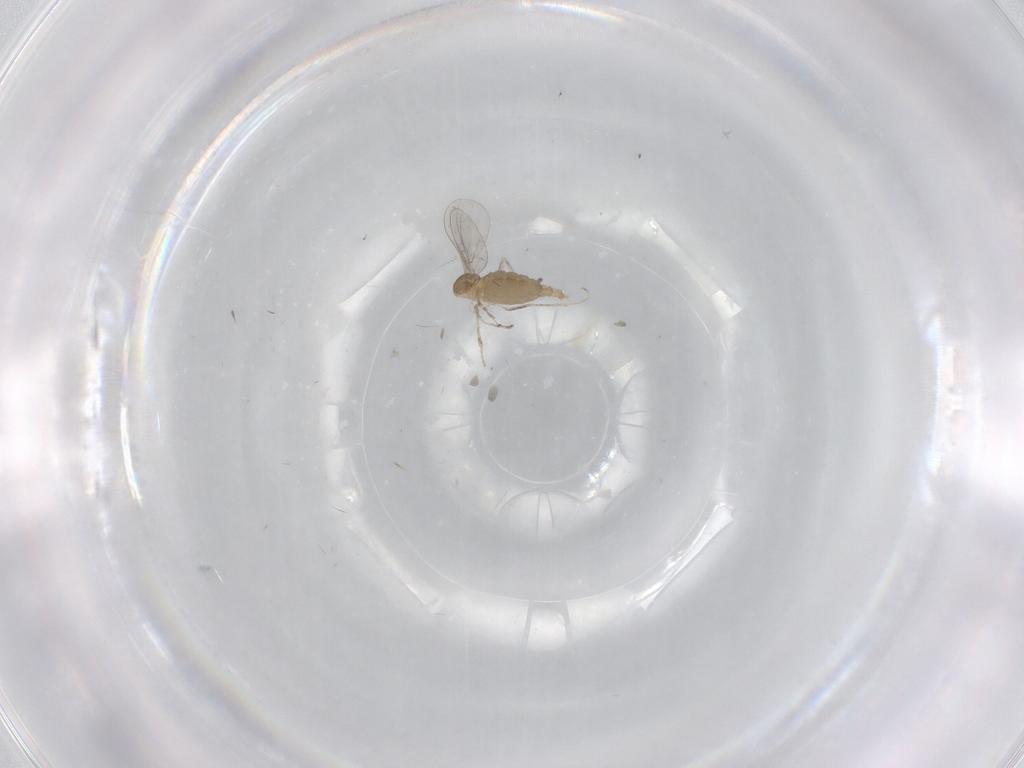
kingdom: Animalia
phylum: Arthropoda
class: Insecta
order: Diptera
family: Cecidomyiidae
